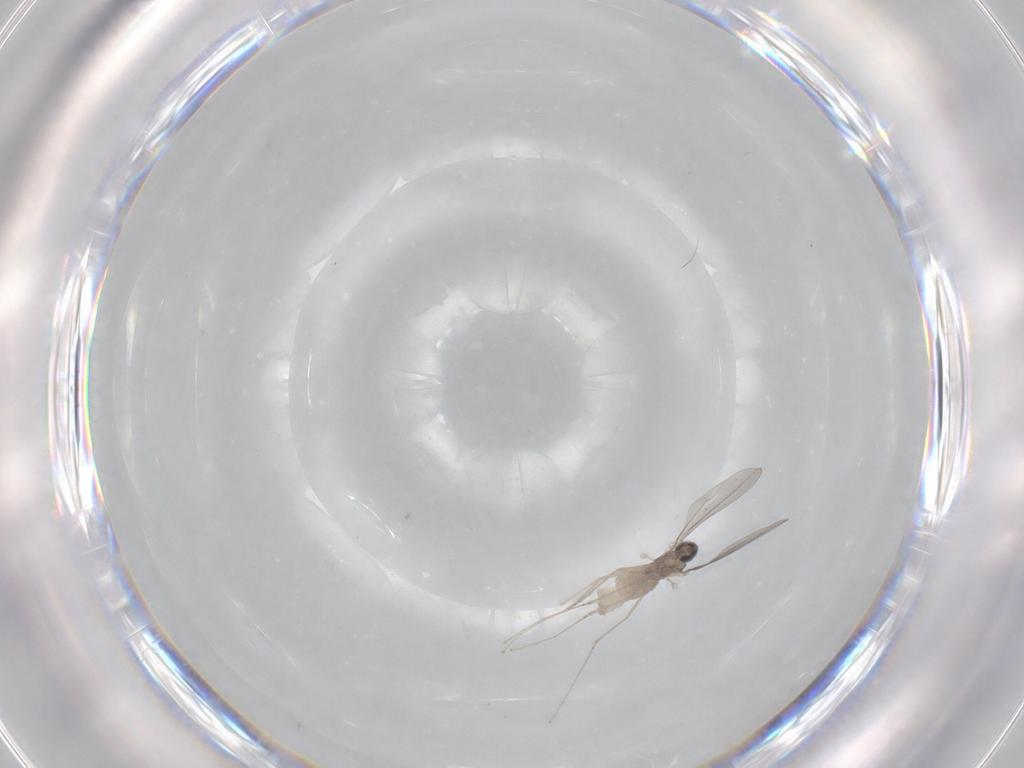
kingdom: Animalia
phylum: Arthropoda
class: Insecta
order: Diptera
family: Cecidomyiidae
